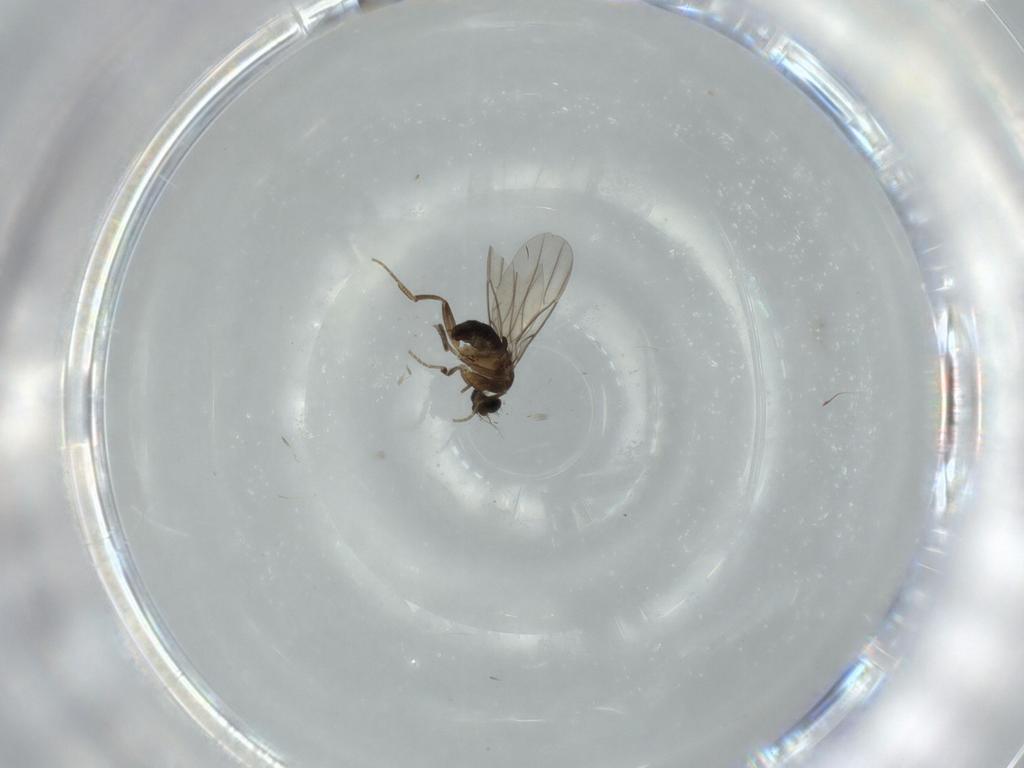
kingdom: Animalia
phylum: Arthropoda
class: Insecta
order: Diptera
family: Phoridae
